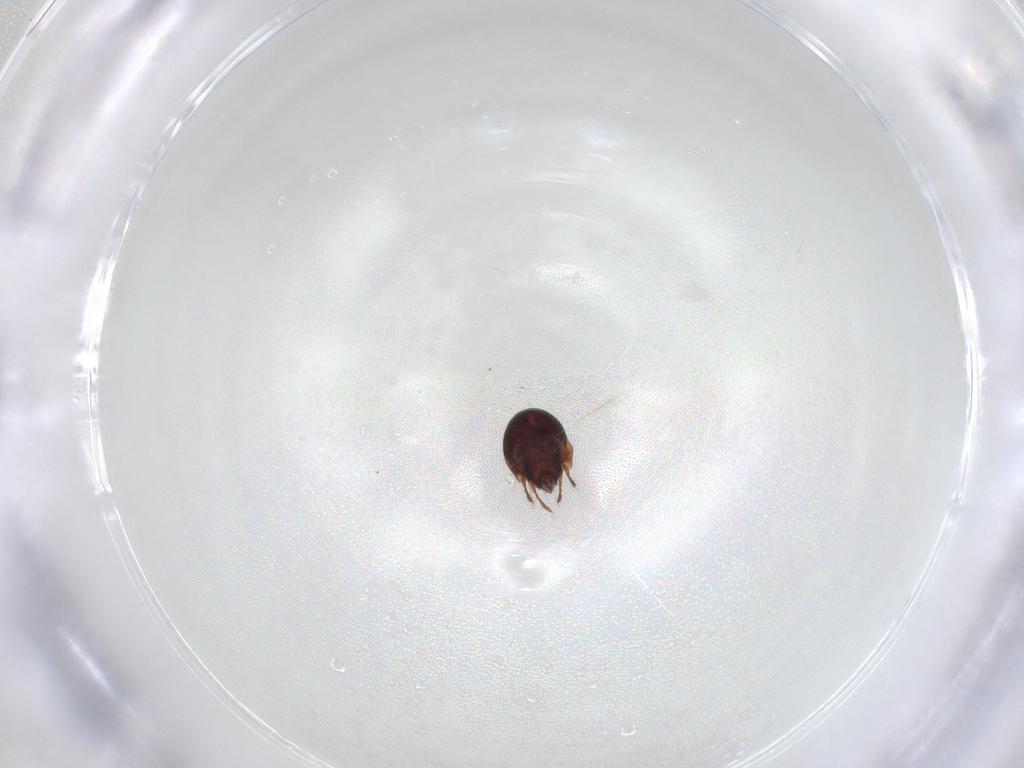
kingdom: Animalia
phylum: Arthropoda
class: Arachnida
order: Sarcoptiformes
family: Humerobatidae
